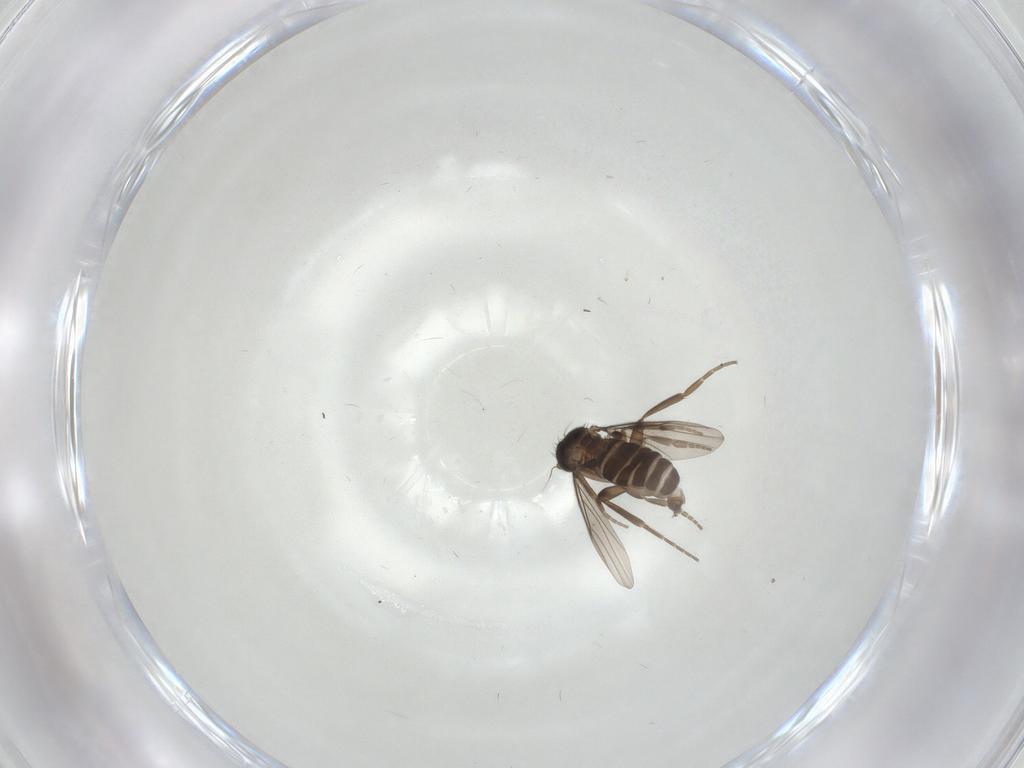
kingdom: Animalia
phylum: Arthropoda
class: Insecta
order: Diptera
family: Phoridae
